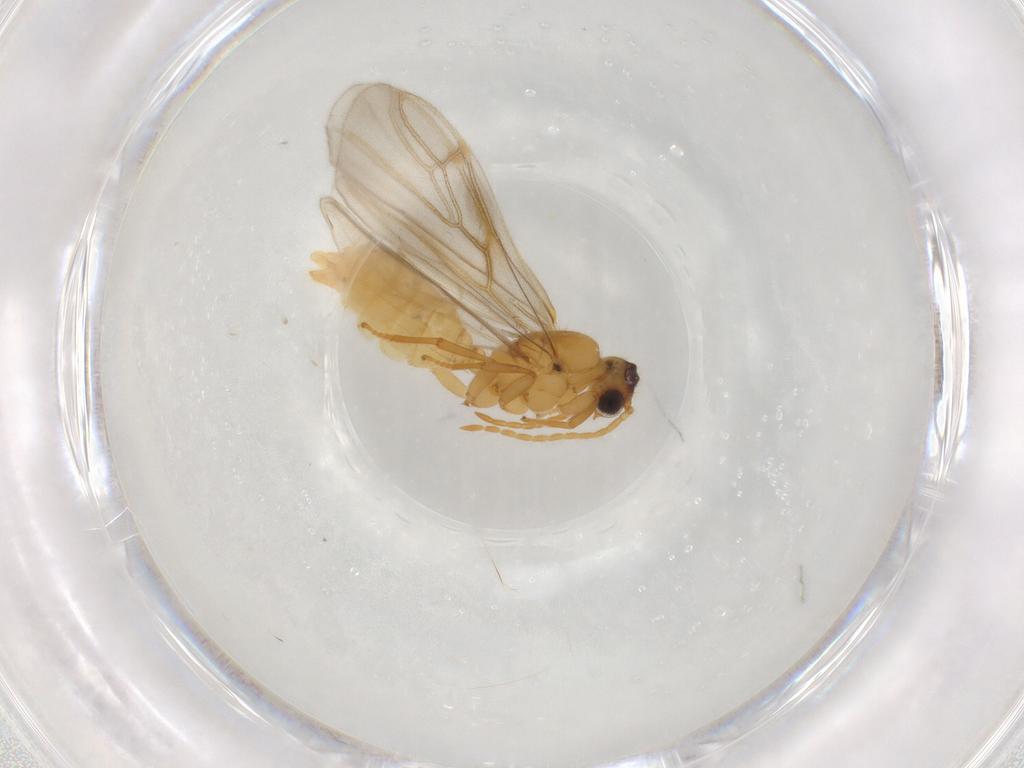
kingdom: Animalia
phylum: Arthropoda
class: Insecta
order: Hymenoptera
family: Formicidae
